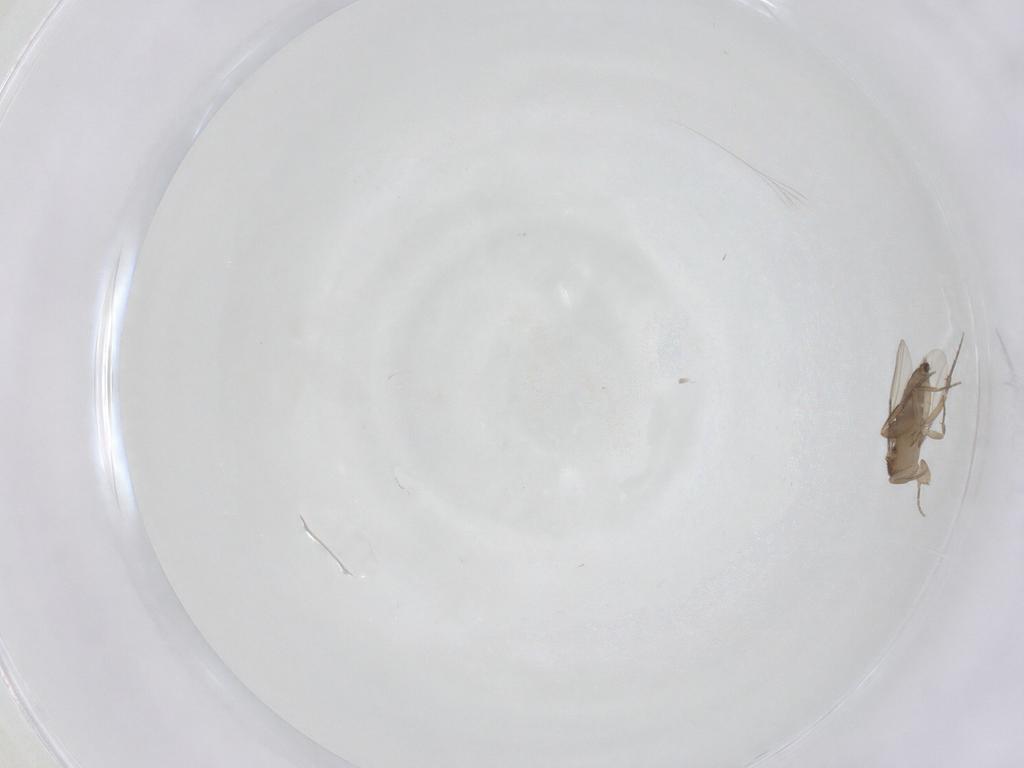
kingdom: Animalia
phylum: Arthropoda
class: Insecta
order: Diptera
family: Phoridae
